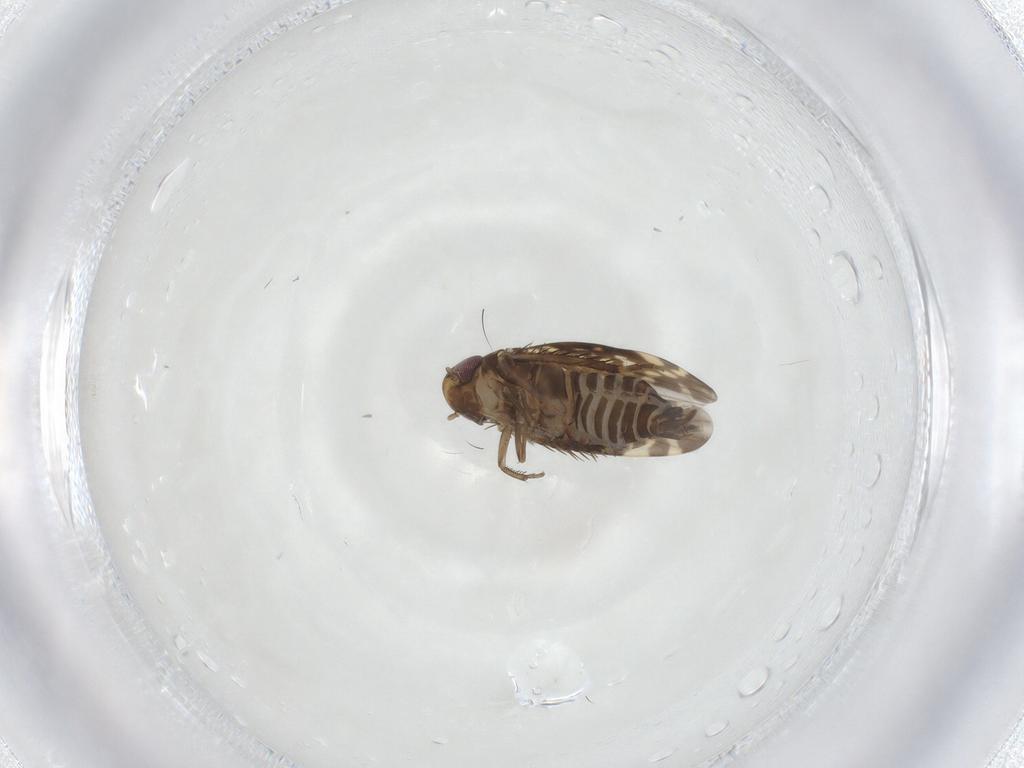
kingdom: Animalia
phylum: Arthropoda
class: Insecta
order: Hemiptera
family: Cicadellidae
